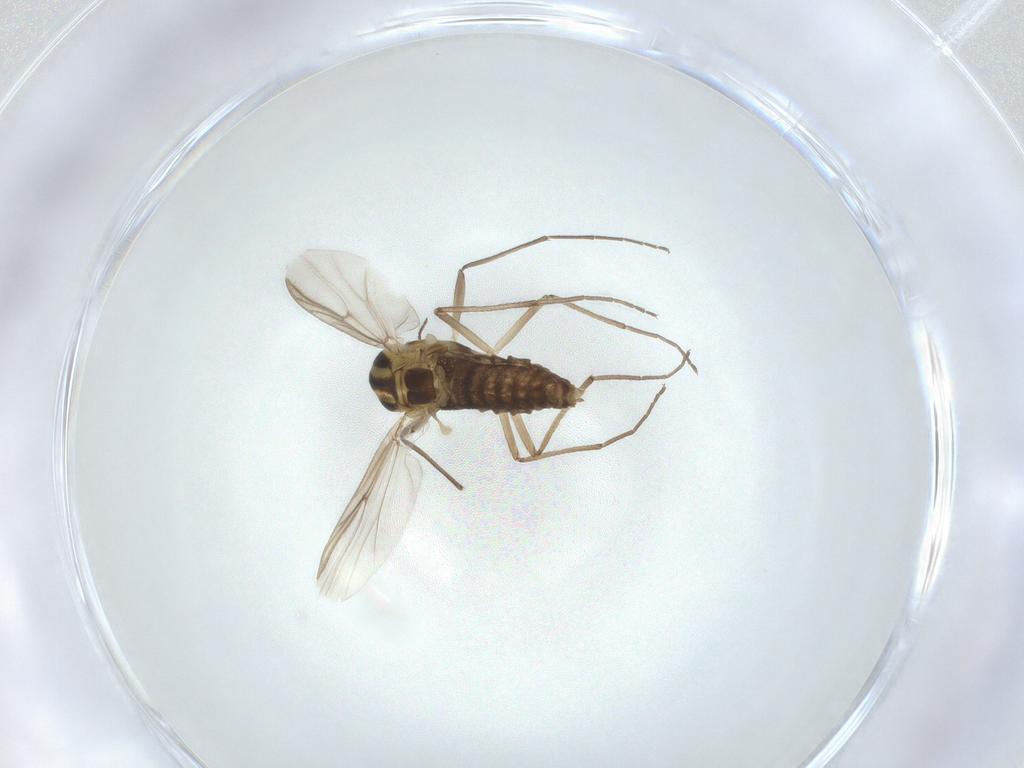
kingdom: Animalia
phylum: Arthropoda
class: Insecta
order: Diptera
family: Chironomidae
